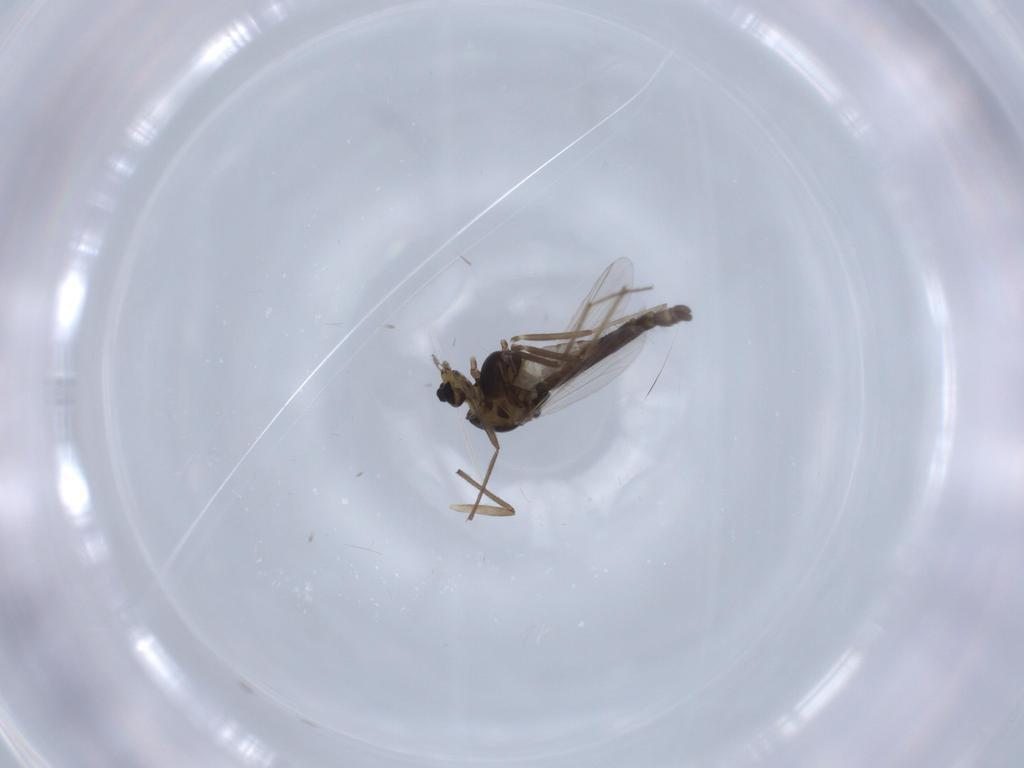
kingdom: Animalia
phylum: Arthropoda
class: Insecta
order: Diptera
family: Chironomidae
